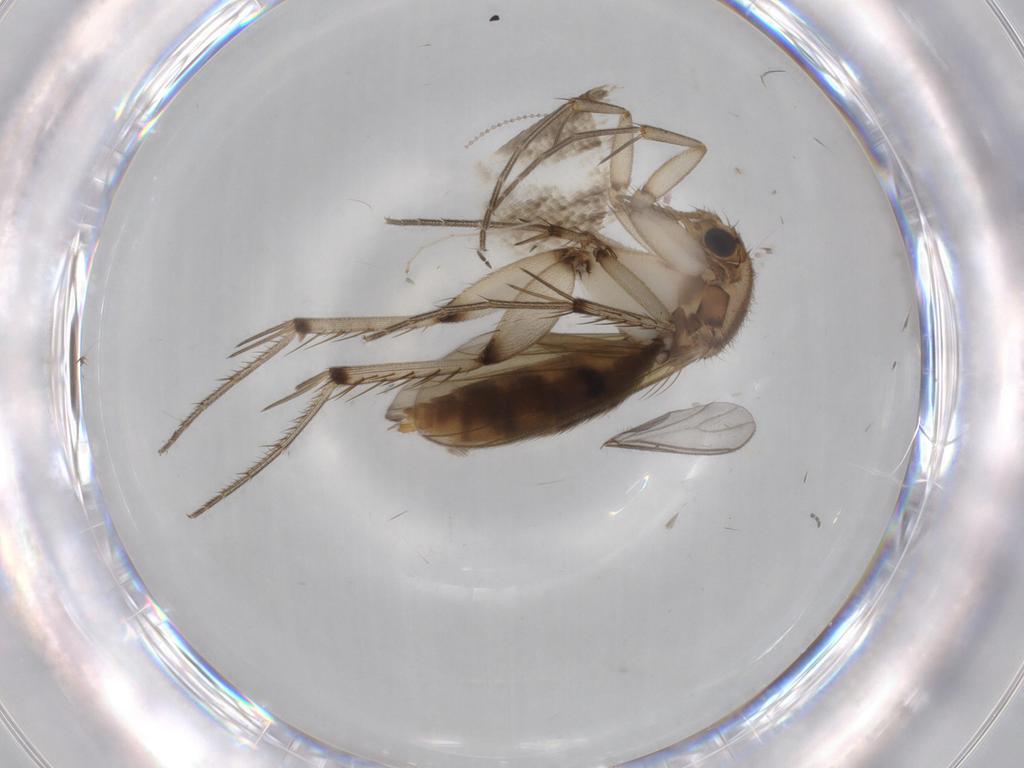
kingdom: Animalia
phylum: Arthropoda
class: Insecta
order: Diptera
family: Mycetophilidae
